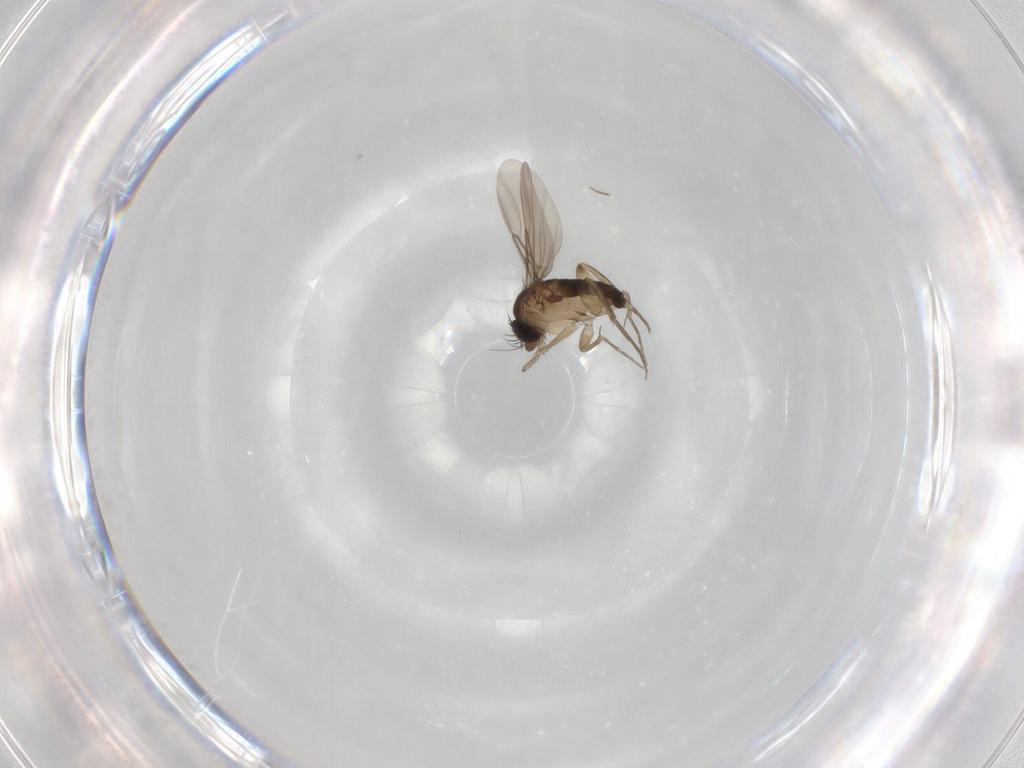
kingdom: Animalia
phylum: Arthropoda
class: Insecta
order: Diptera
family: Phoridae
